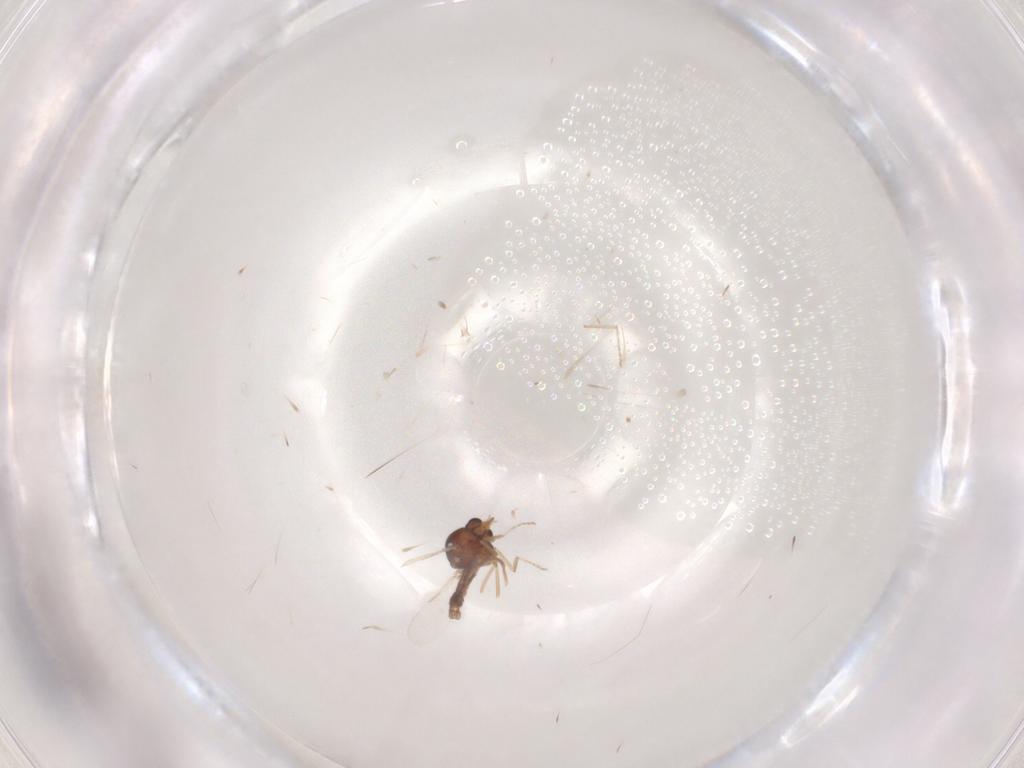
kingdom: Animalia
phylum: Arthropoda
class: Insecta
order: Diptera
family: Ceratopogonidae
